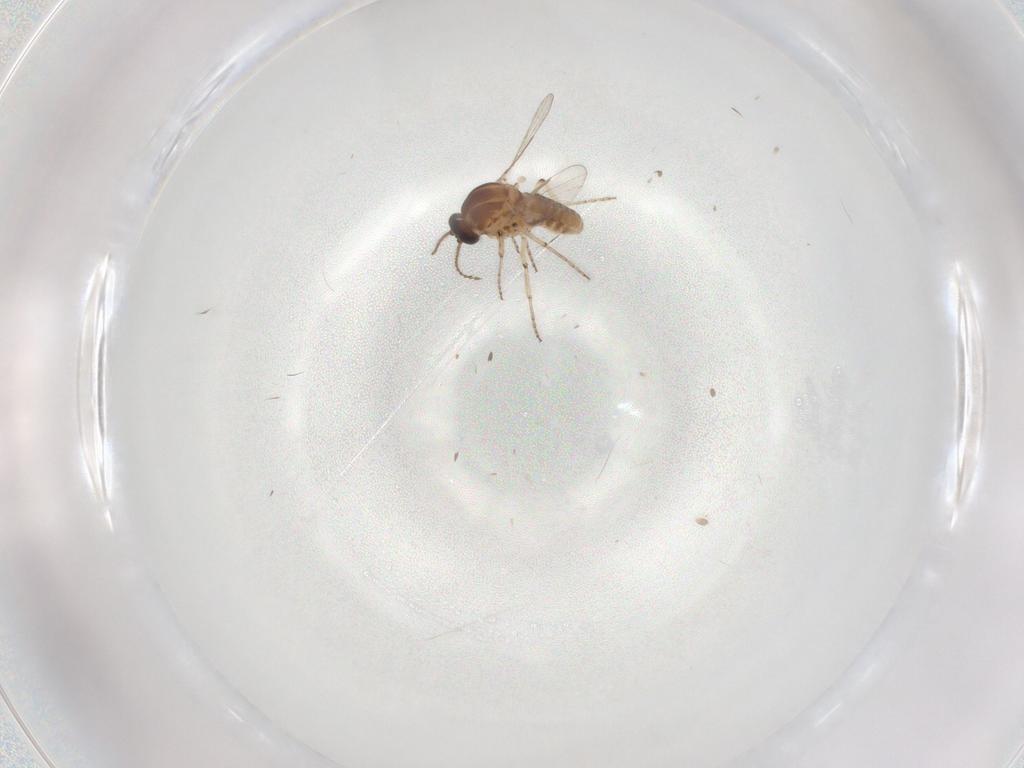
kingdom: Animalia
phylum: Arthropoda
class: Insecta
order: Diptera
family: Ceratopogonidae
